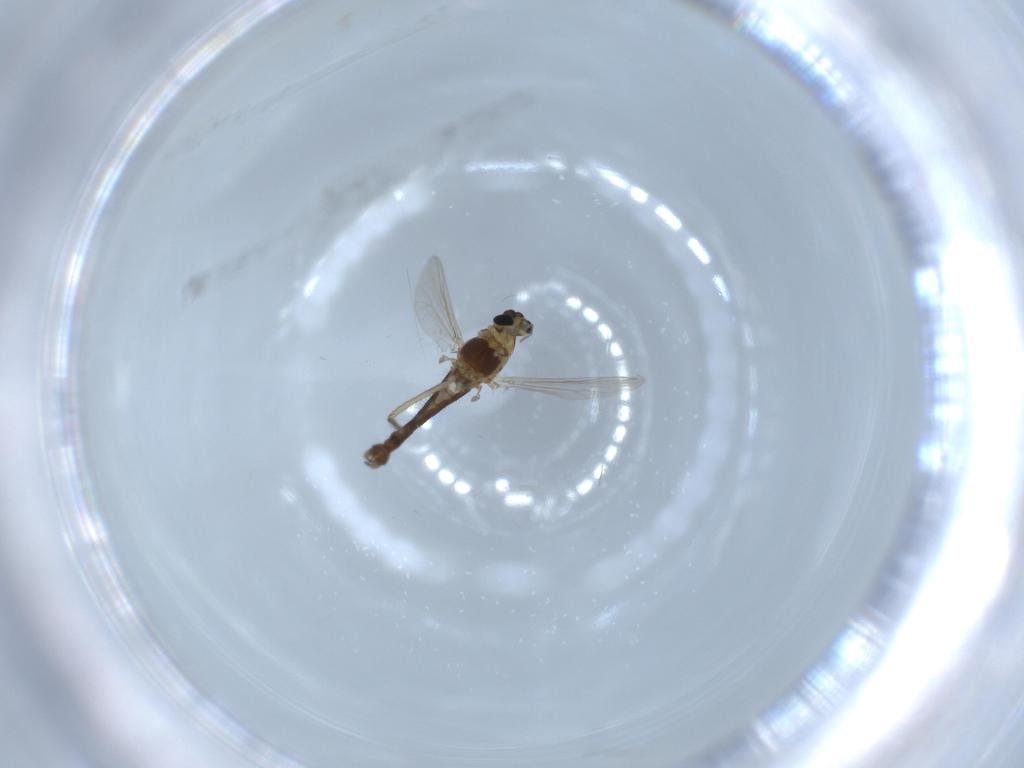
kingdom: Animalia
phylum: Arthropoda
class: Insecta
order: Diptera
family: Chironomidae
